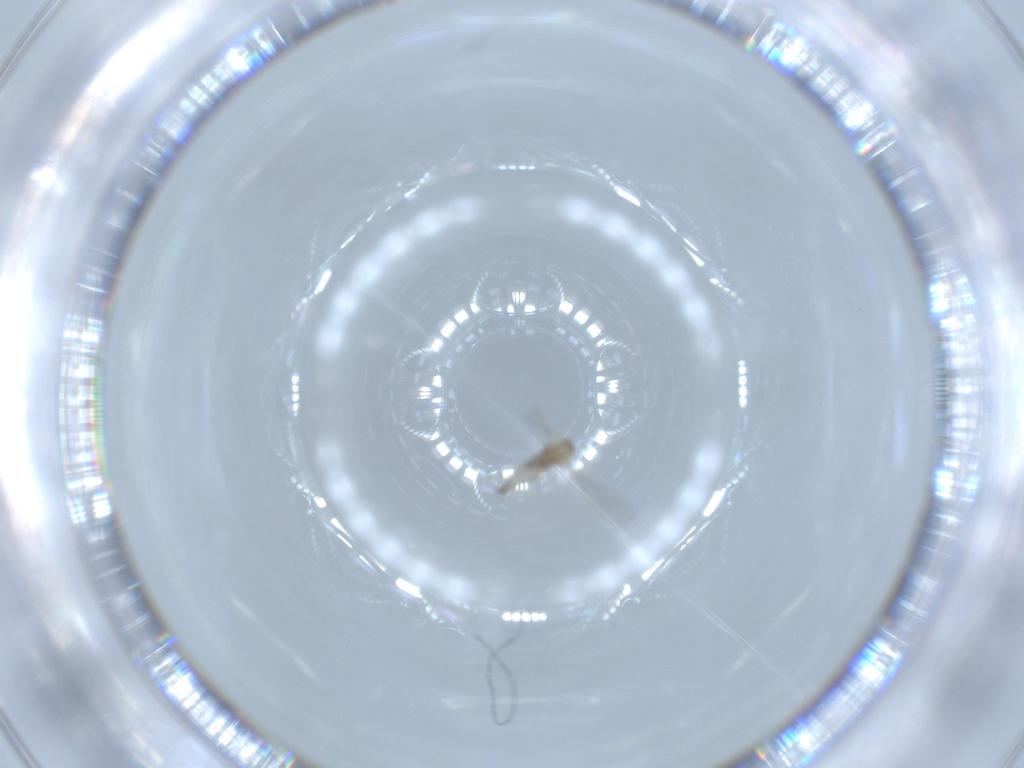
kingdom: Animalia
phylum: Arthropoda
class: Insecta
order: Diptera
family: Cecidomyiidae
